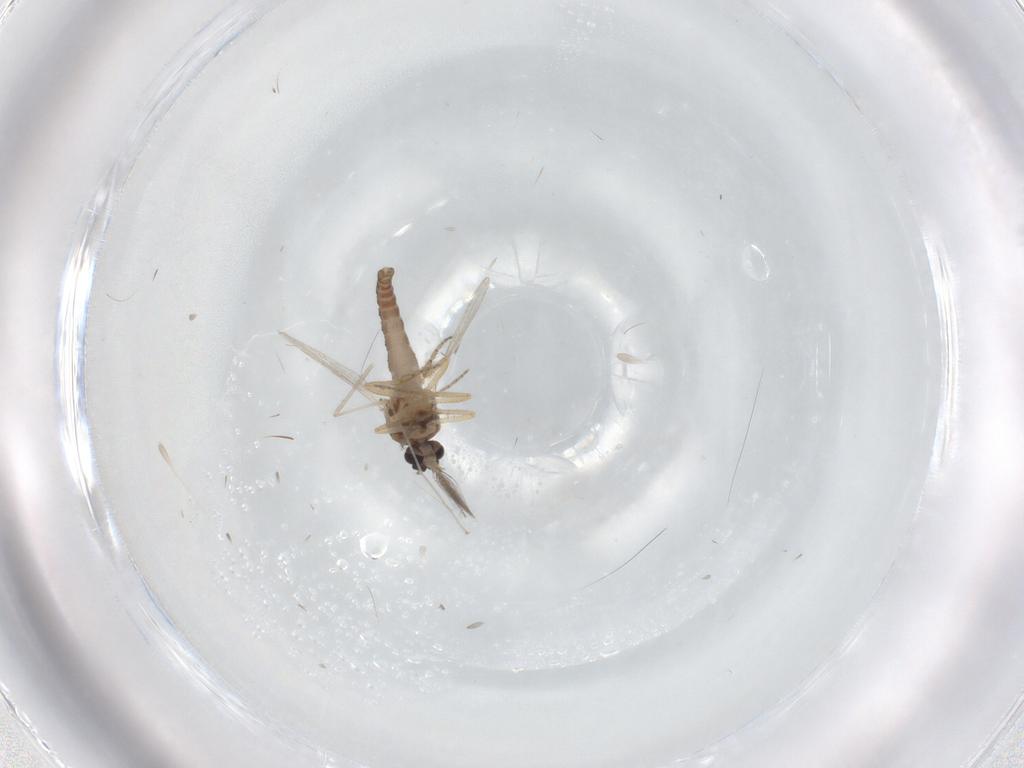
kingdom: Animalia
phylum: Arthropoda
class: Insecta
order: Diptera
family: Ceratopogonidae
